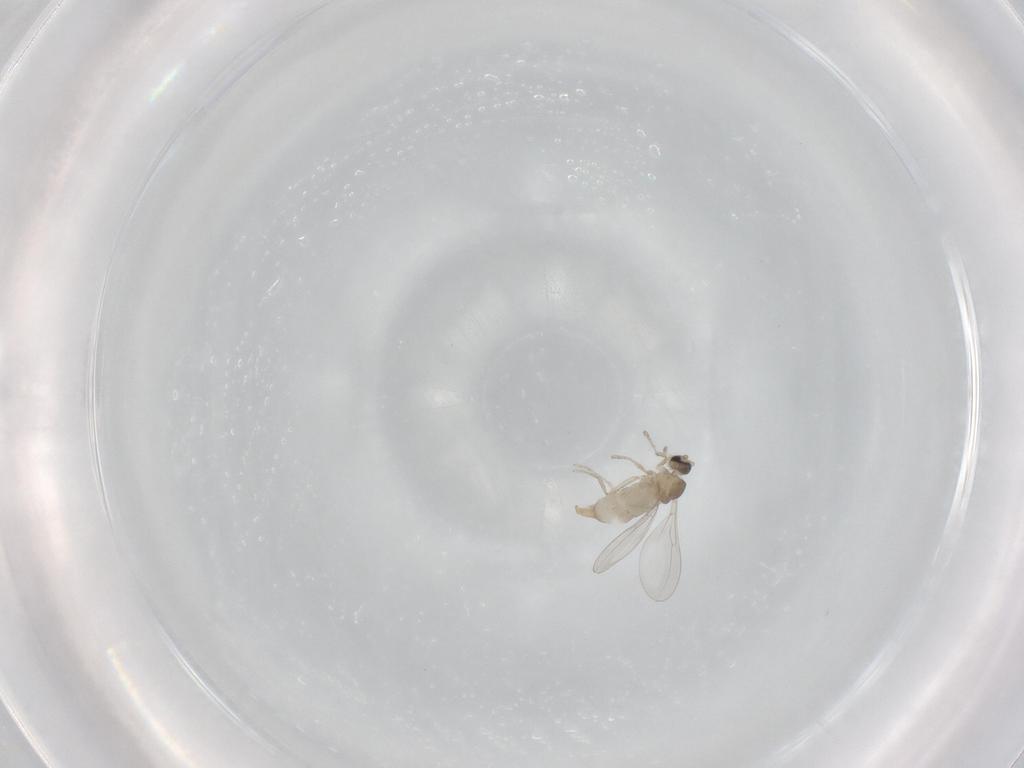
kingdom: Animalia
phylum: Arthropoda
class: Insecta
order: Diptera
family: Cecidomyiidae
